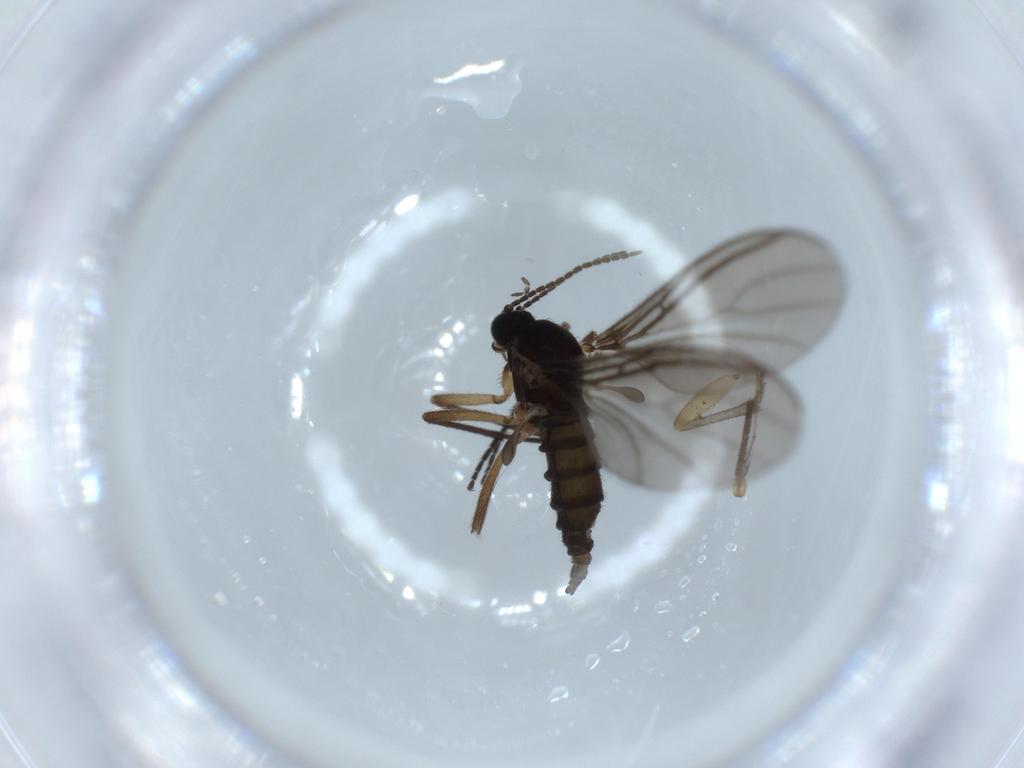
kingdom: Animalia
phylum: Arthropoda
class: Insecta
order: Diptera
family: Sciaridae
